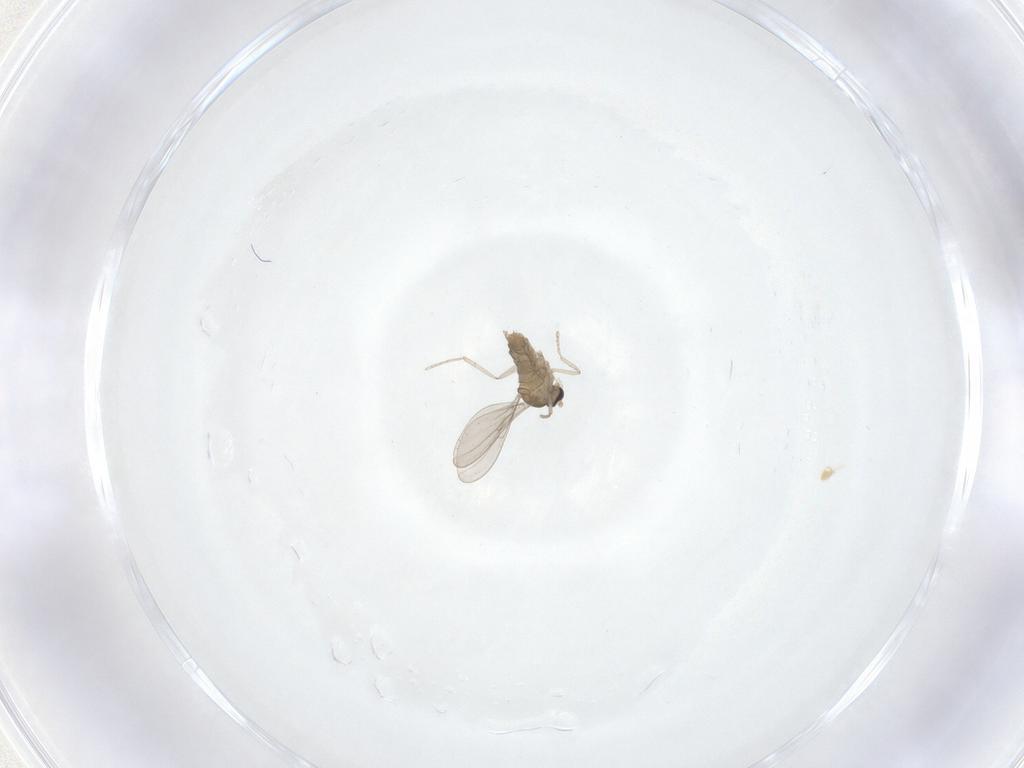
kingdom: Animalia
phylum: Arthropoda
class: Insecta
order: Diptera
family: Cecidomyiidae
